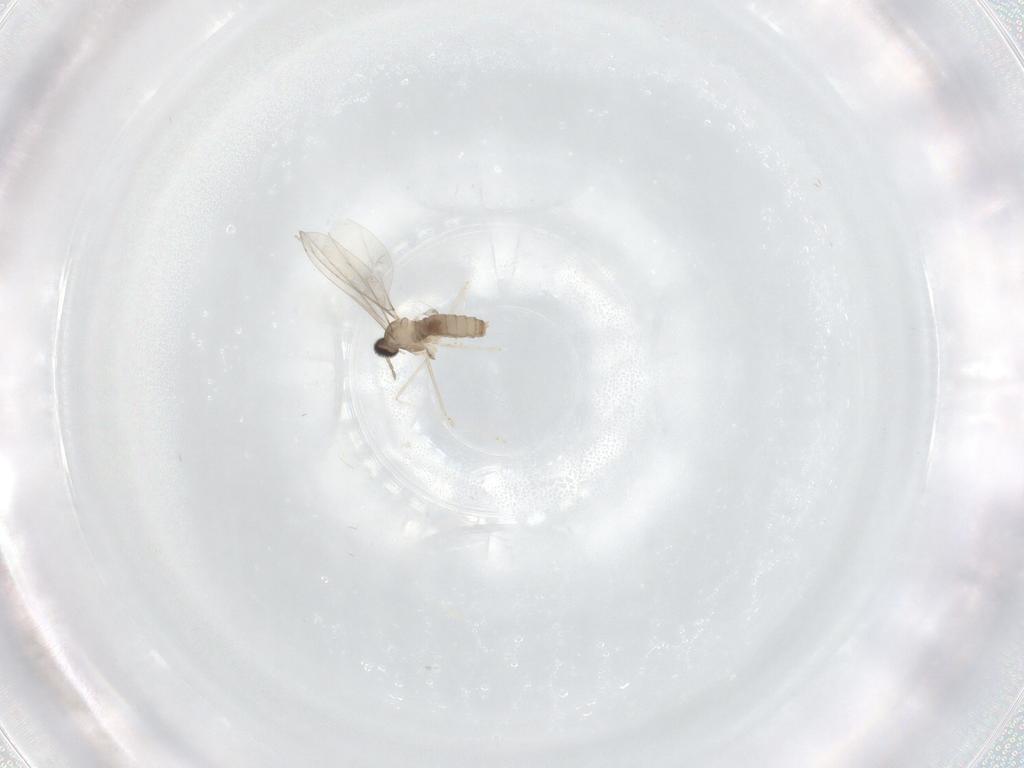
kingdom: Animalia
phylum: Arthropoda
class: Insecta
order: Diptera
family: Cecidomyiidae
